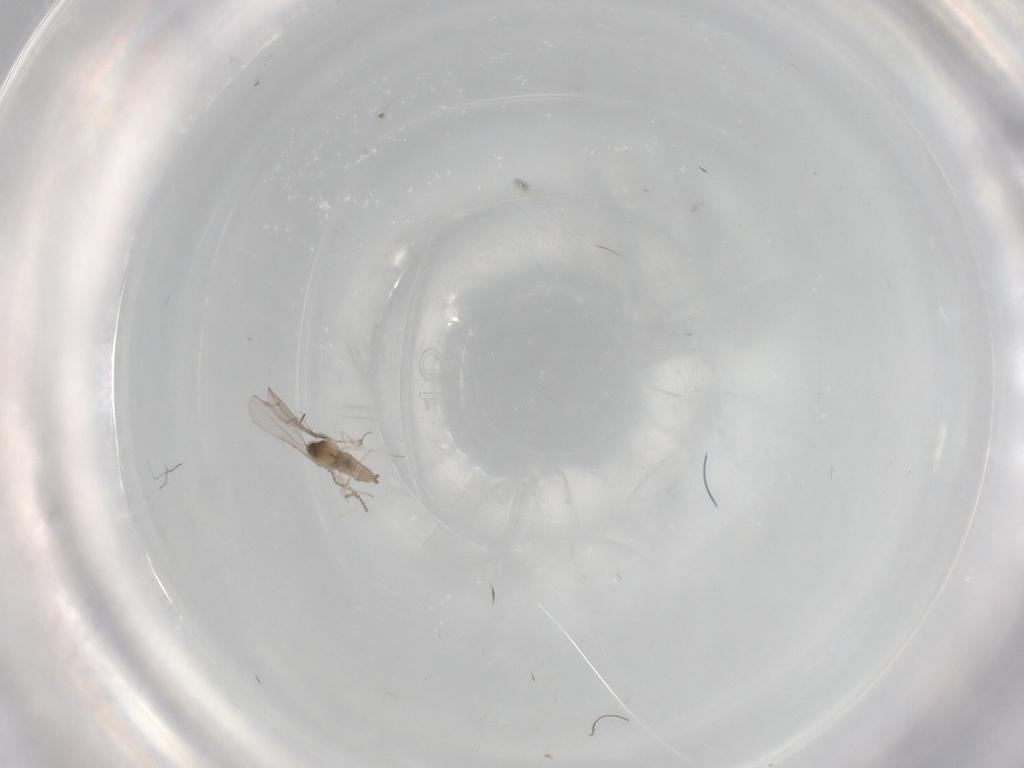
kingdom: Animalia
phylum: Arthropoda
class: Insecta
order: Diptera
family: Cecidomyiidae
